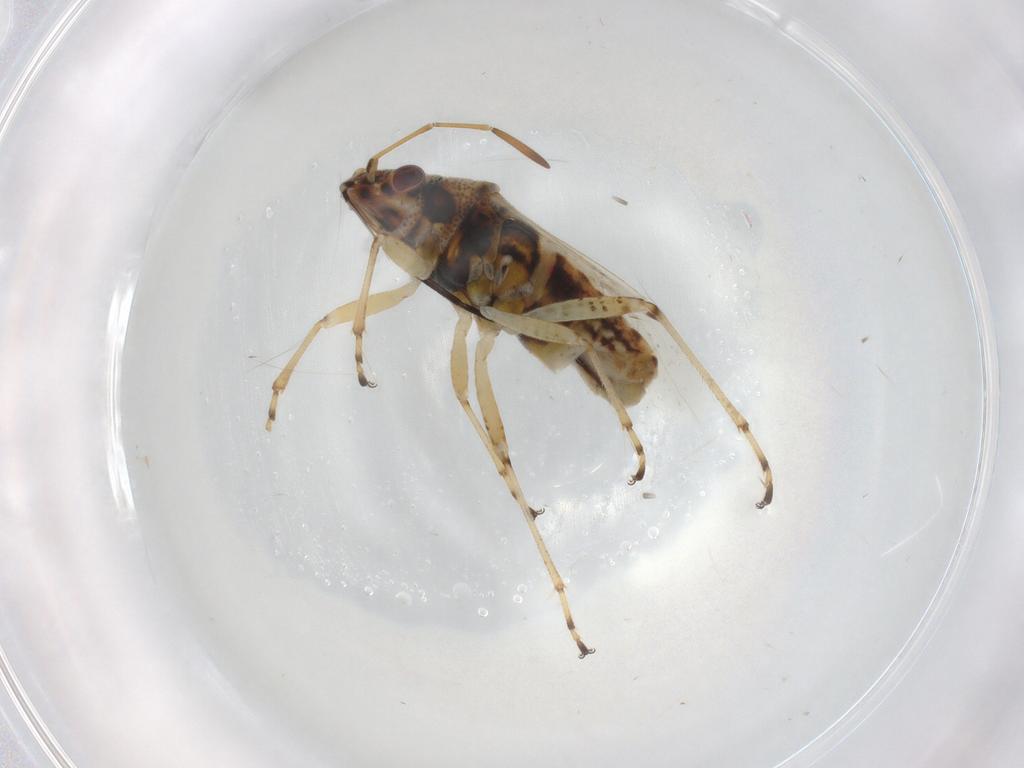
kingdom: Animalia
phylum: Arthropoda
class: Insecta
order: Hemiptera
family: Lygaeidae
